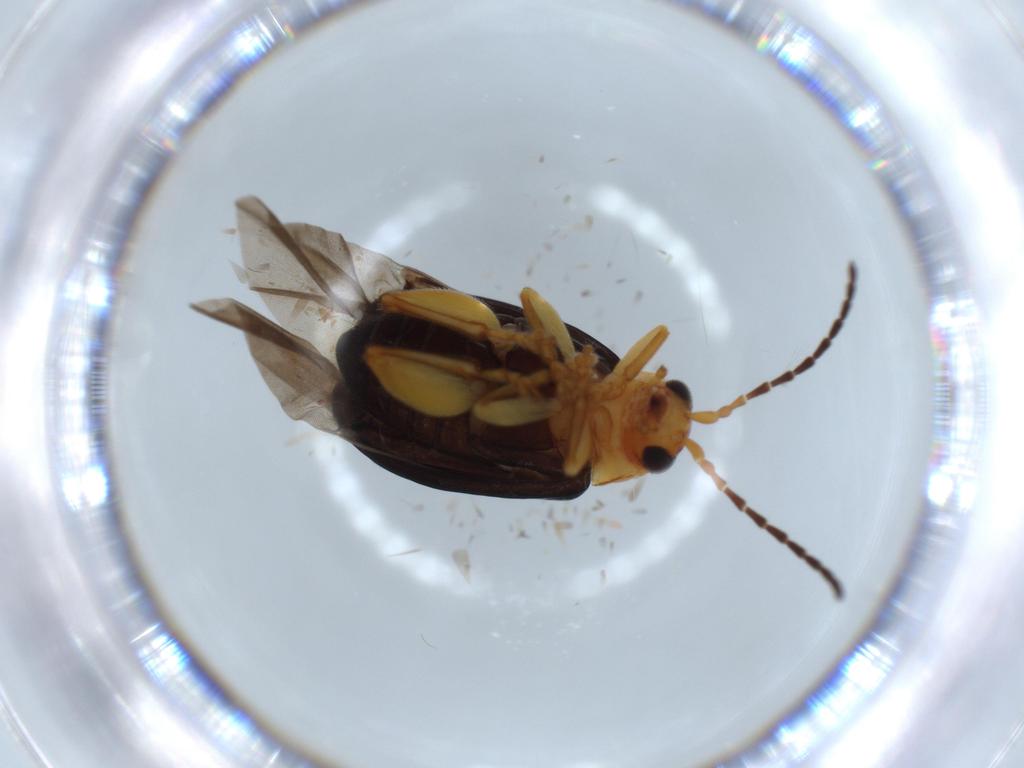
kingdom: Animalia
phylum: Arthropoda
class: Insecta
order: Coleoptera
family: Chrysomelidae
